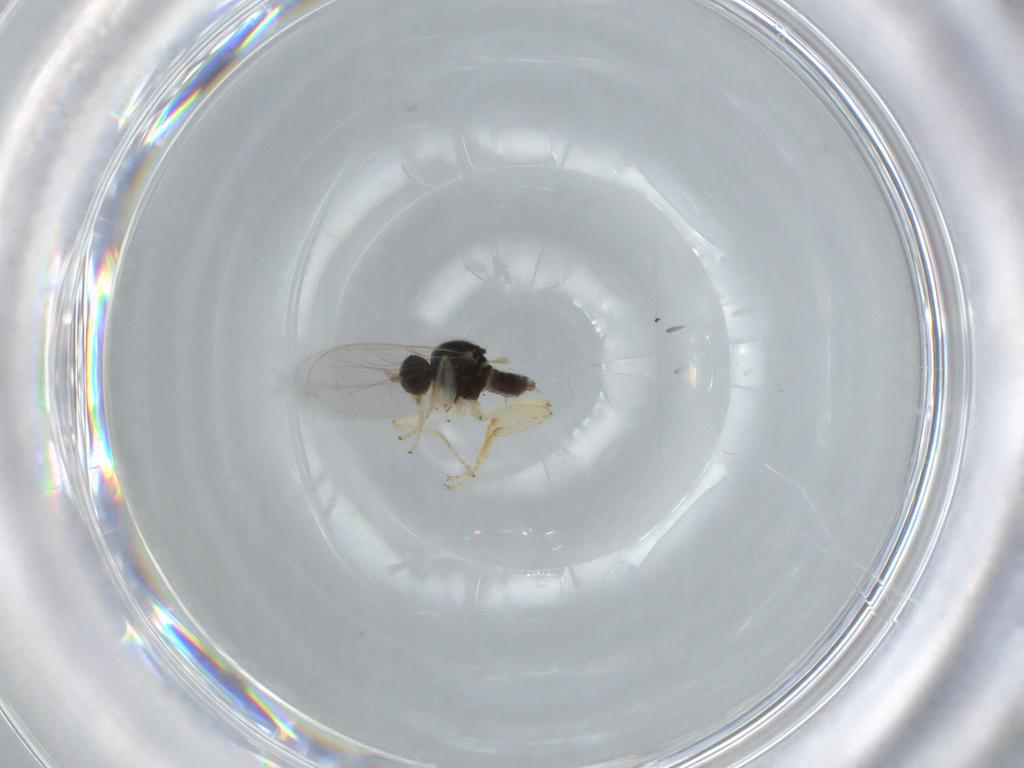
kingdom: Animalia
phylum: Arthropoda
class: Insecta
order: Diptera
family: Hybotidae
